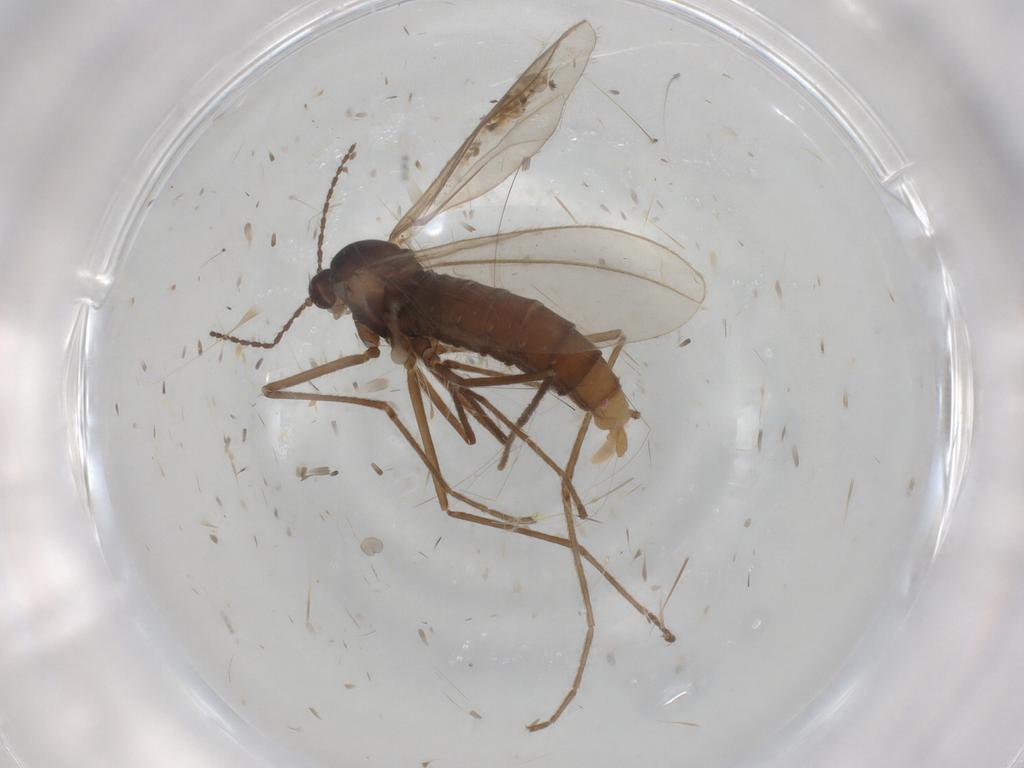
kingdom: Animalia
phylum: Arthropoda
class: Insecta
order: Diptera
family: Cecidomyiidae
